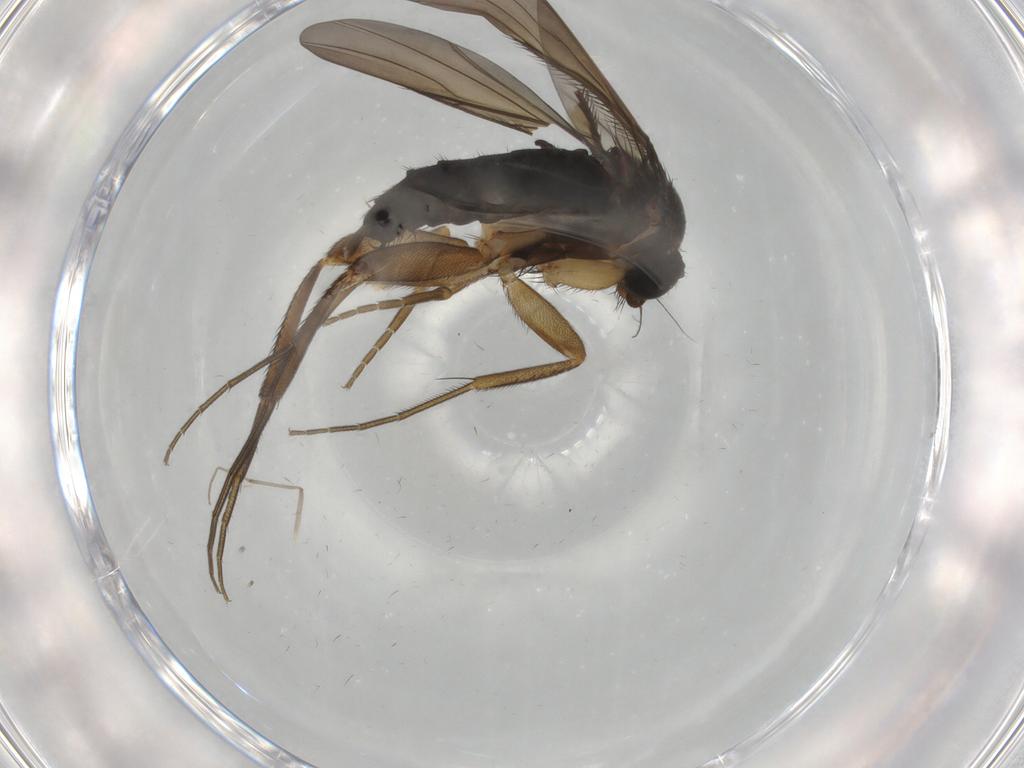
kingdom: Animalia
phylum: Arthropoda
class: Insecta
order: Diptera
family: Phoridae
